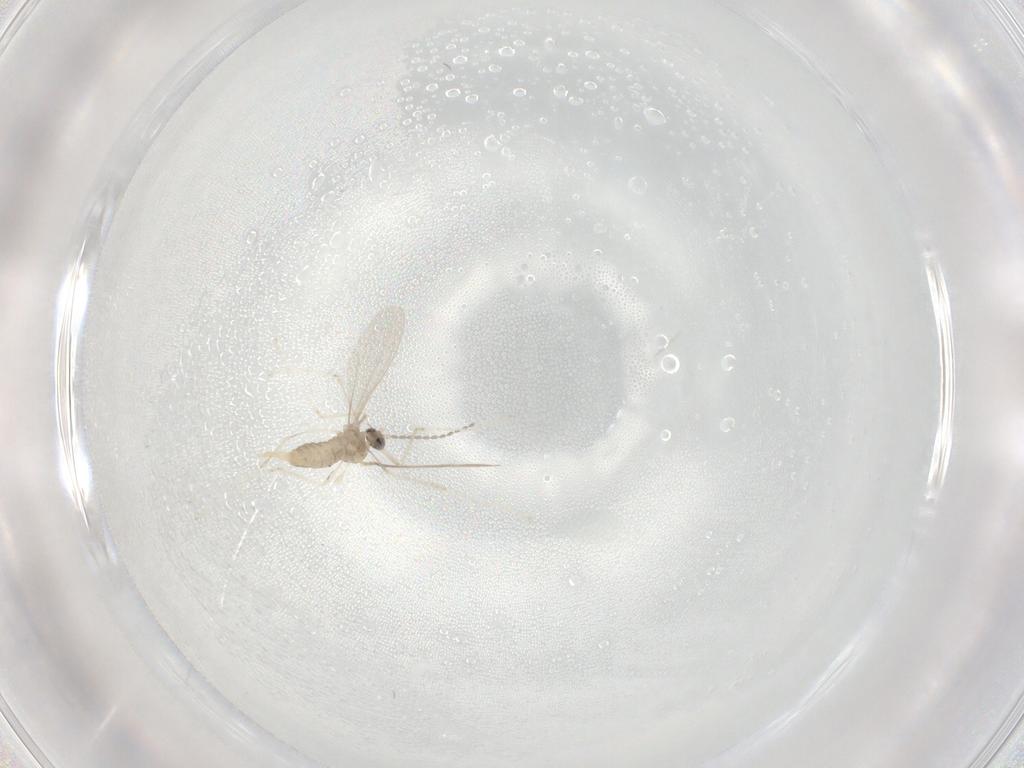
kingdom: Animalia
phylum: Arthropoda
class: Insecta
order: Diptera
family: Cecidomyiidae
